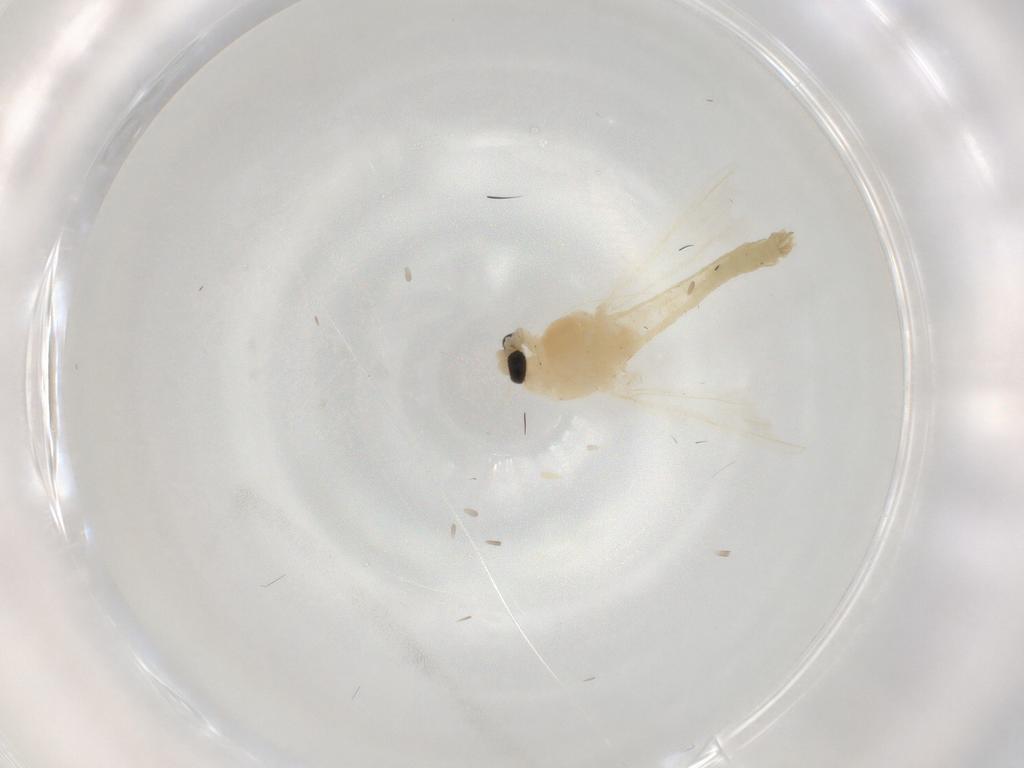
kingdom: Animalia
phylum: Arthropoda
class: Insecta
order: Diptera
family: Chironomidae
